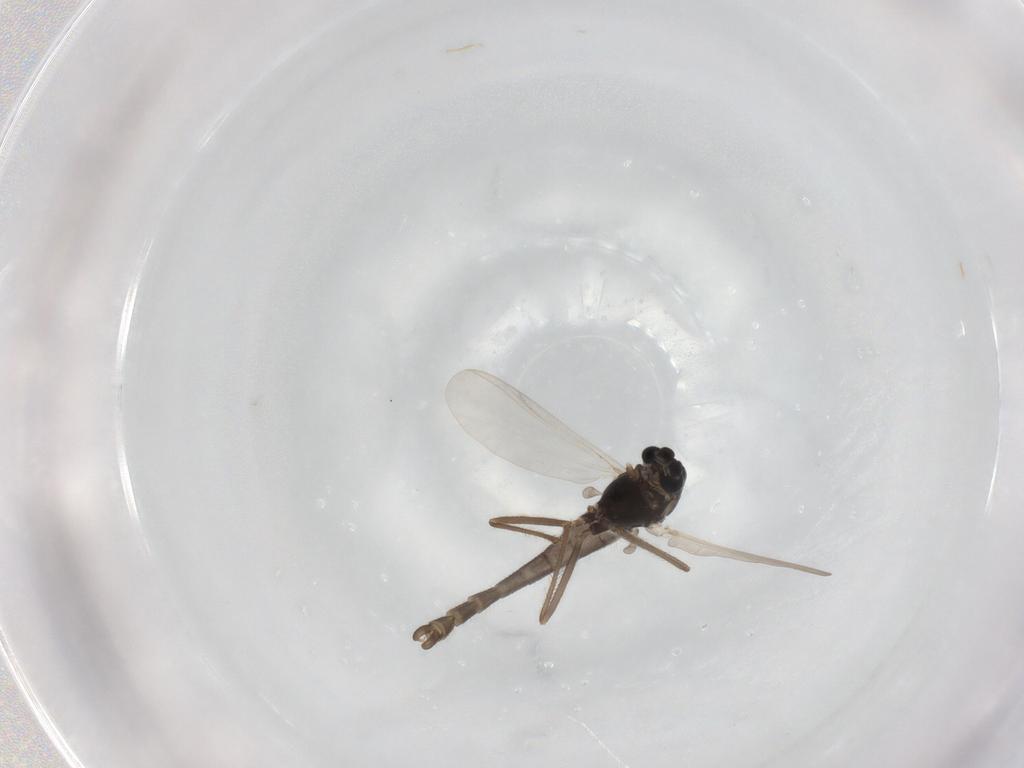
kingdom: Animalia
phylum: Arthropoda
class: Insecta
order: Diptera
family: Chironomidae
